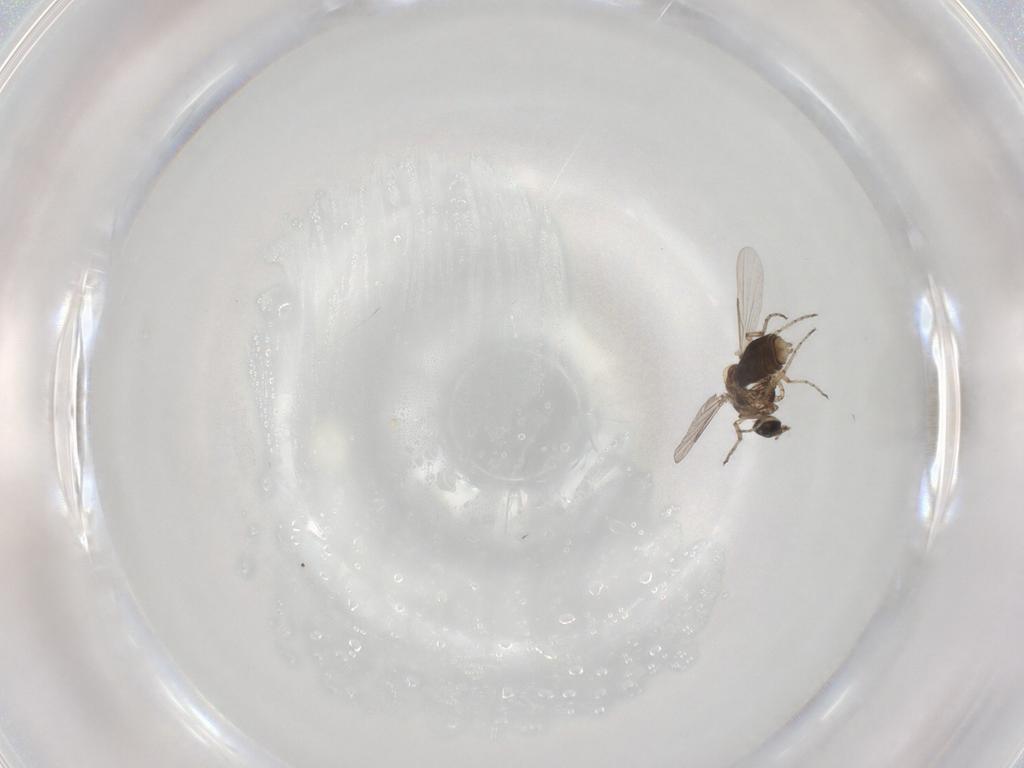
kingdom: Animalia
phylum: Arthropoda
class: Insecta
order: Diptera
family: Ceratopogonidae
